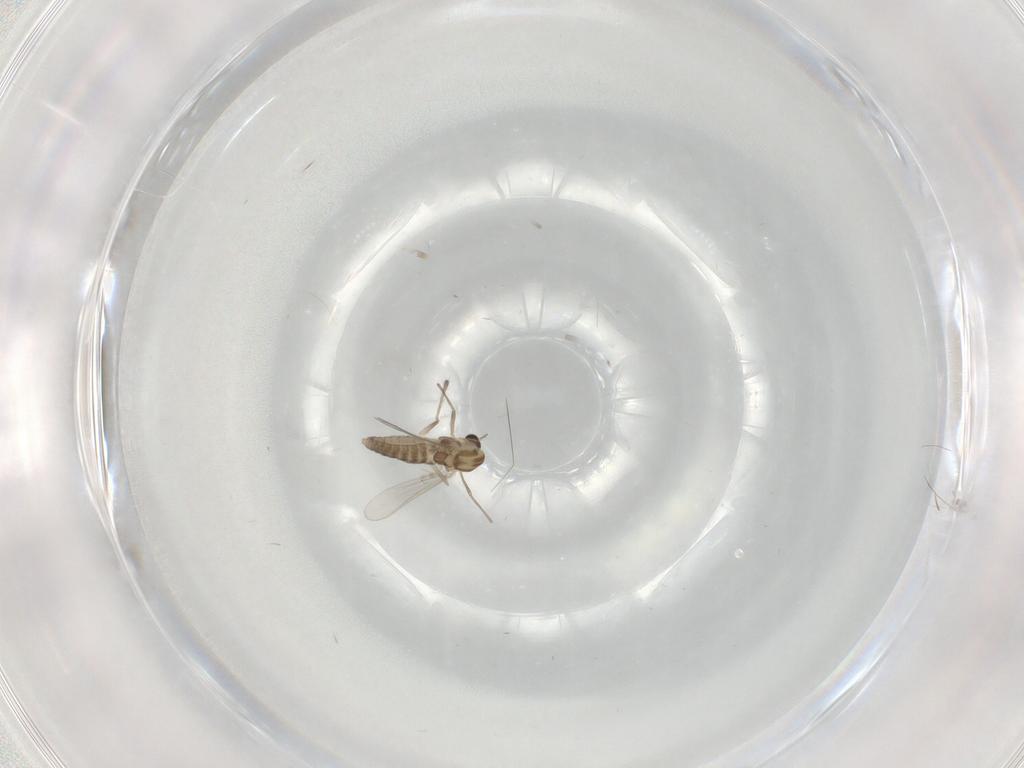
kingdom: Animalia
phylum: Arthropoda
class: Insecta
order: Diptera
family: Chironomidae
